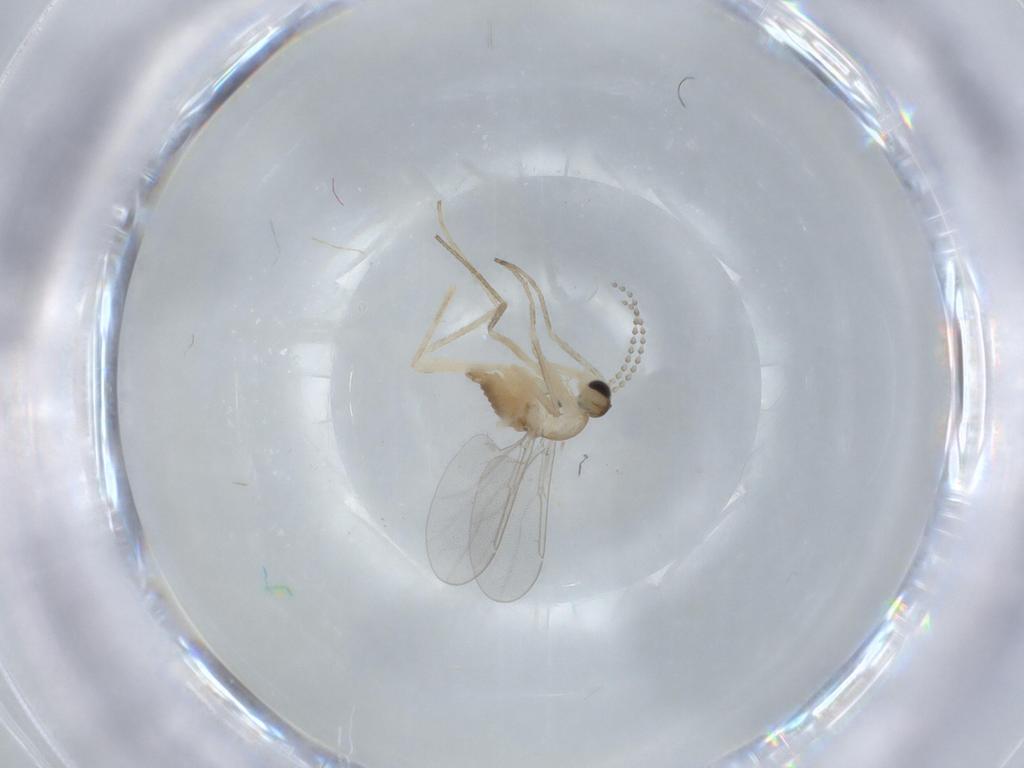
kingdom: Animalia
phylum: Arthropoda
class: Insecta
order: Diptera
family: Cecidomyiidae
